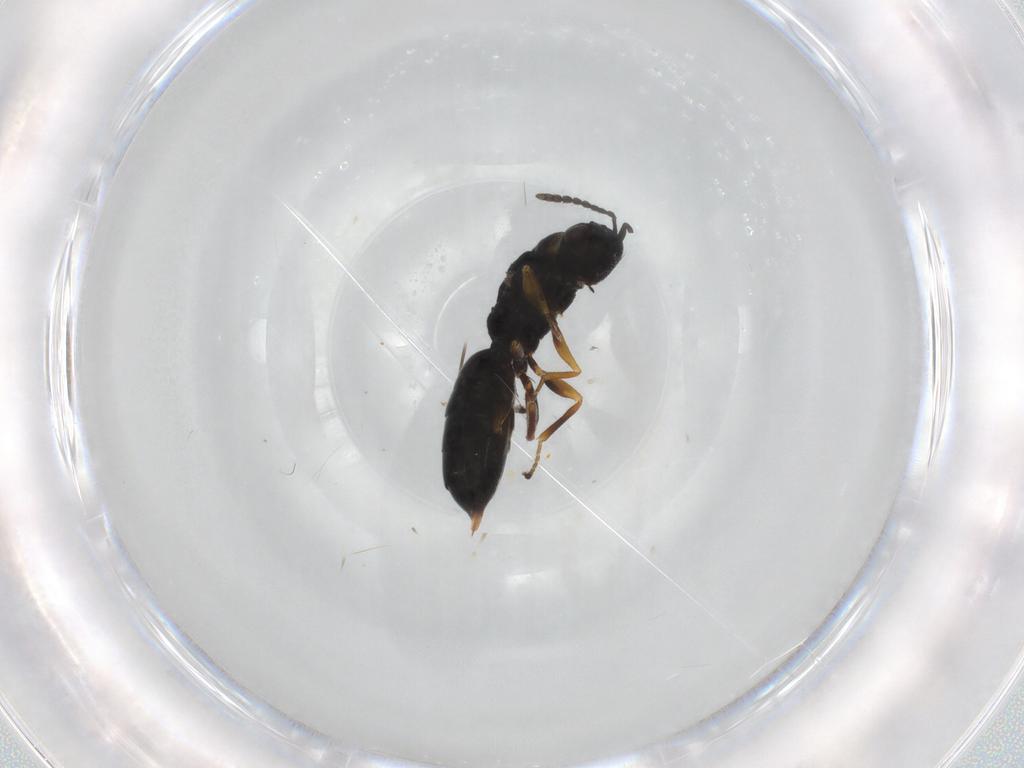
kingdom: Animalia
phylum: Arthropoda
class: Insecta
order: Hymenoptera
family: Eurytomidae
